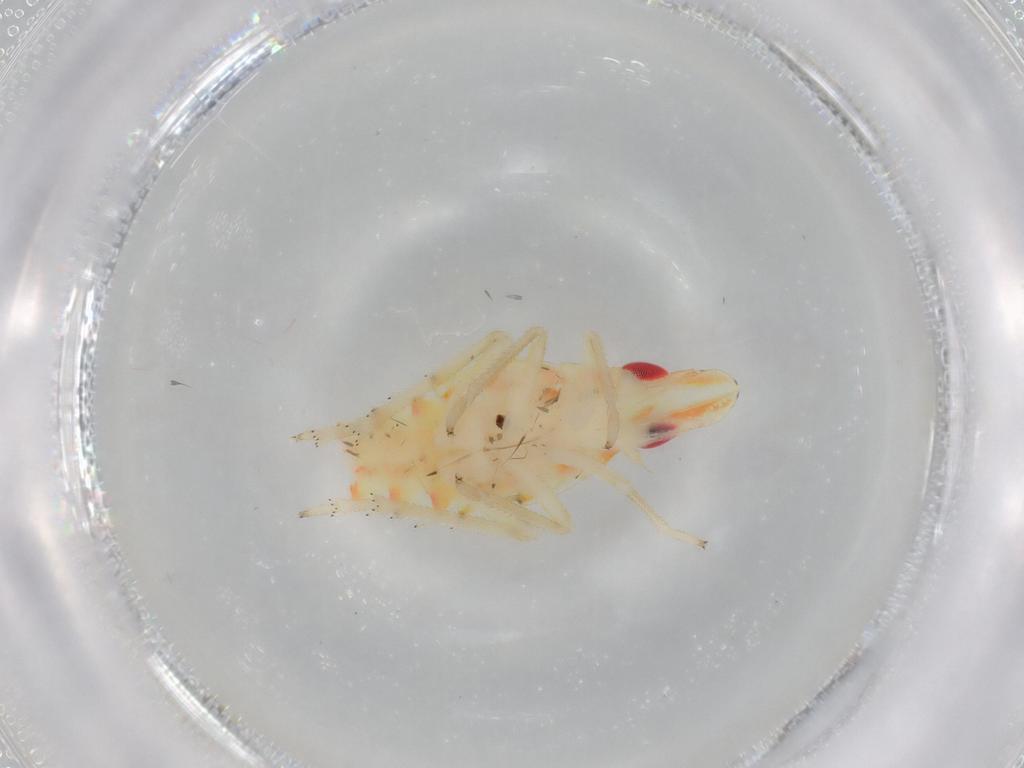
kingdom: Animalia
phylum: Arthropoda
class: Insecta
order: Hemiptera
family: Tropiduchidae
